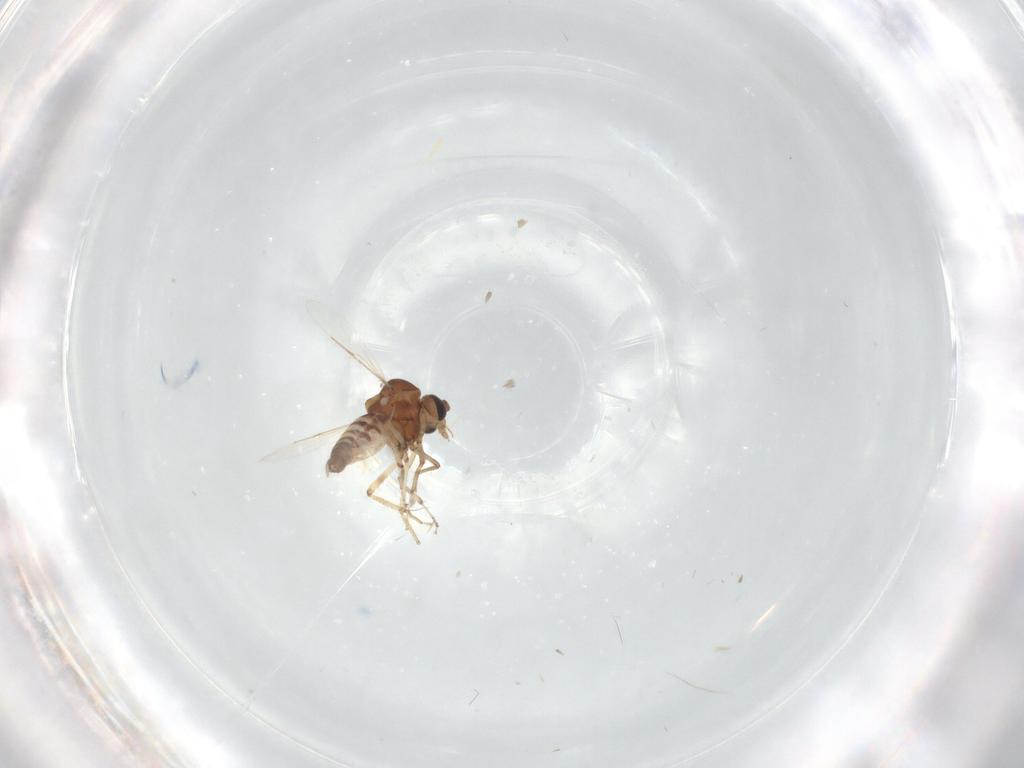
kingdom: Animalia
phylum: Arthropoda
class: Insecta
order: Diptera
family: Ceratopogonidae
